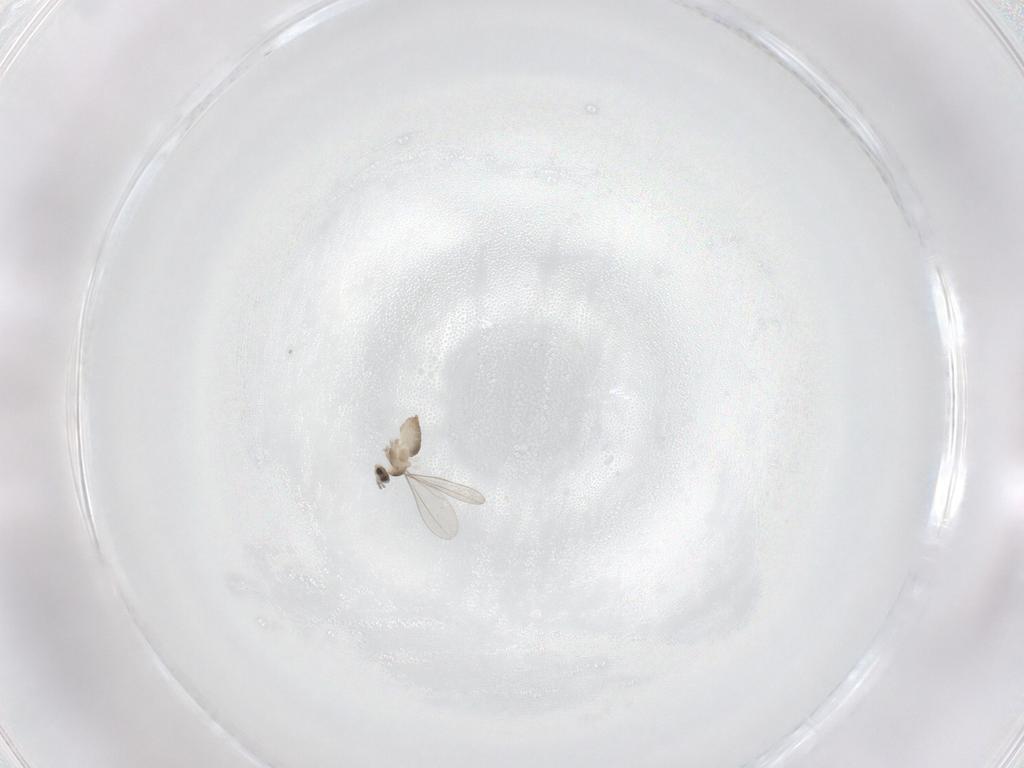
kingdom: Animalia
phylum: Arthropoda
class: Insecta
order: Diptera
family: Cecidomyiidae
